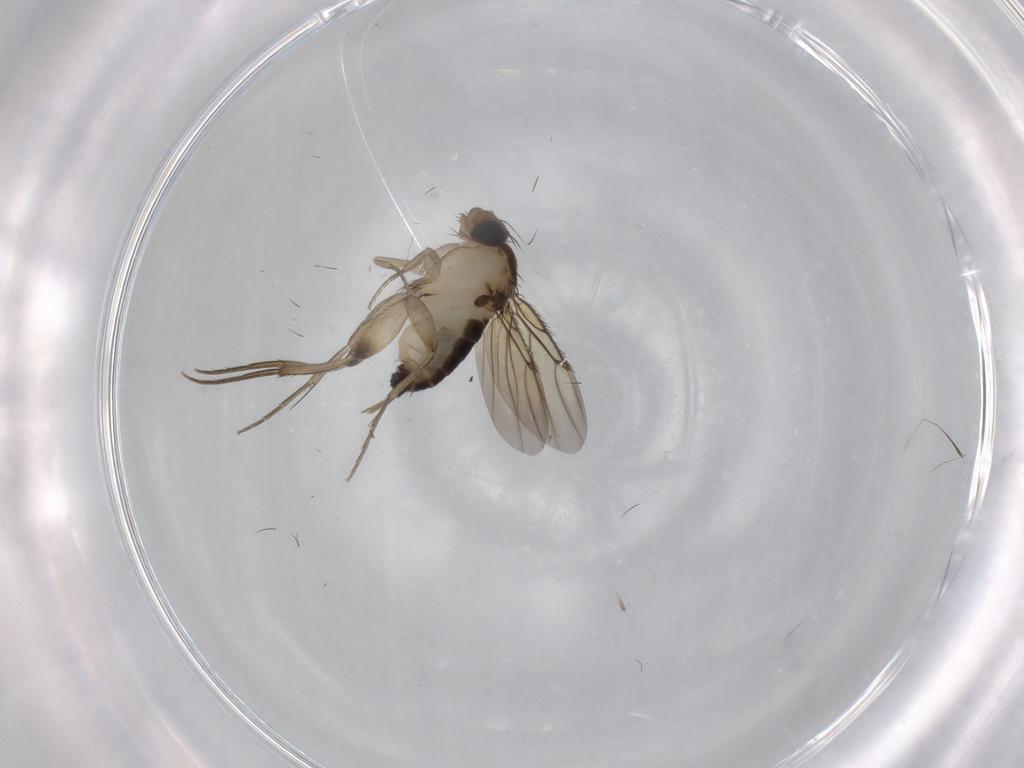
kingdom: Animalia
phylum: Arthropoda
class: Insecta
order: Diptera
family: Phoridae
